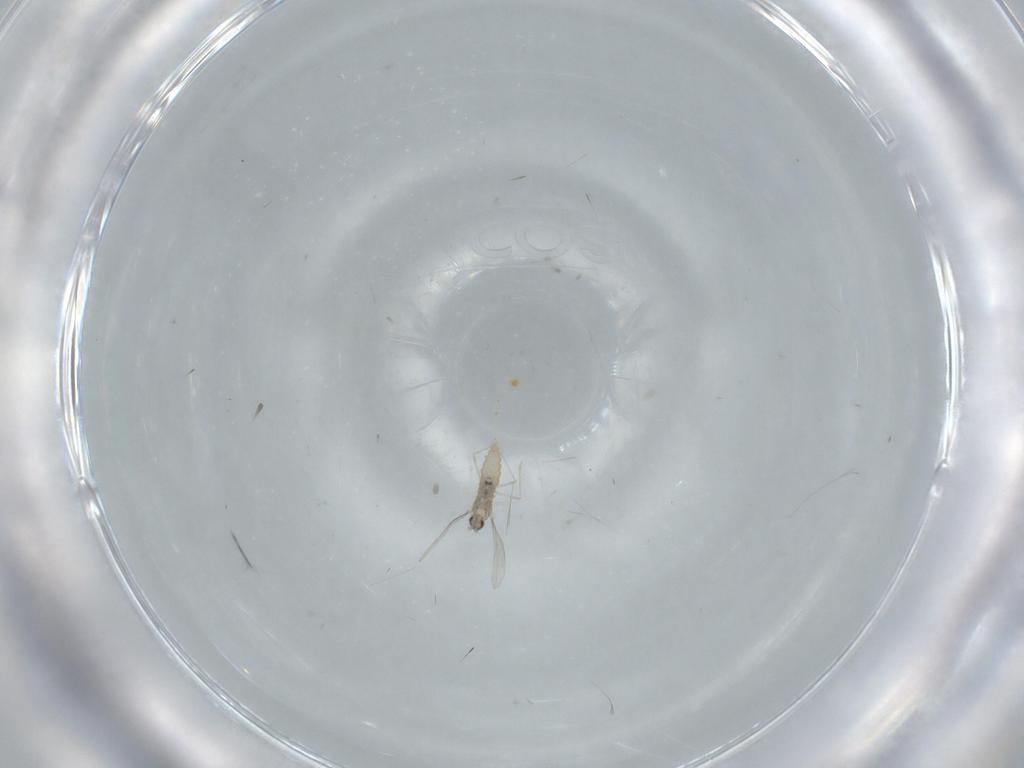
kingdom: Animalia
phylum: Arthropoda
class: Insecta
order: Diptera
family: Cecidomyiidae
